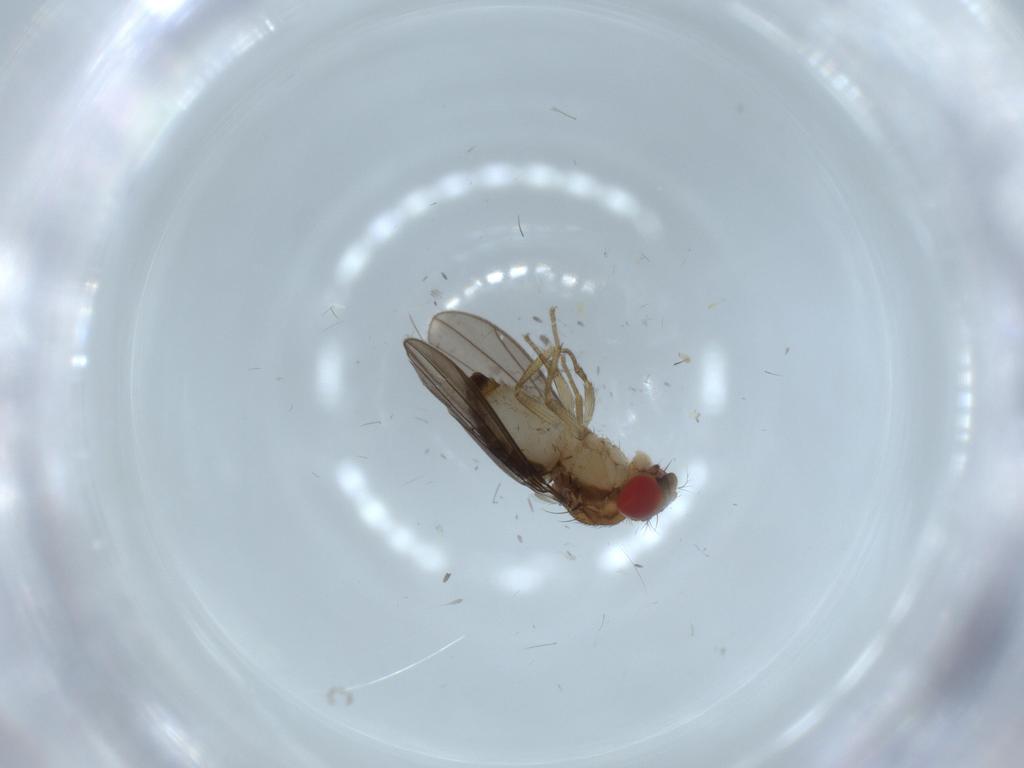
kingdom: Animalia
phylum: Arthropoda
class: Insecta
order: Diptera
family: Drosophilidae
